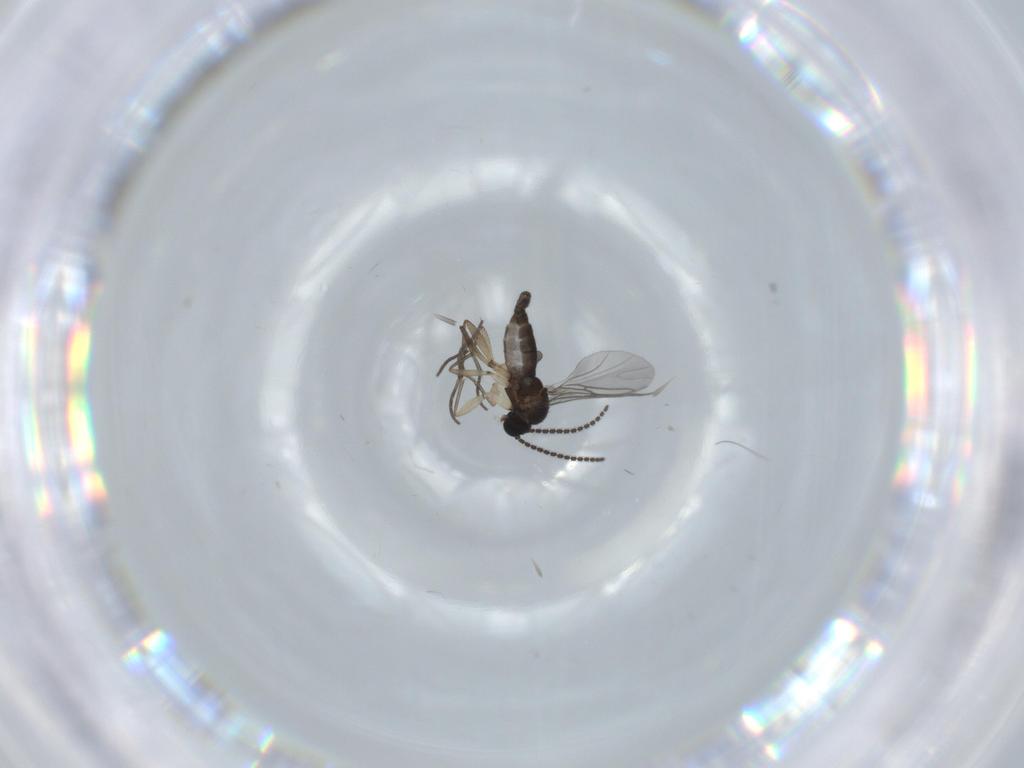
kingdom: Animalia
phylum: Arthropoda
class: Insecta
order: Diptera
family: Sciaridae
